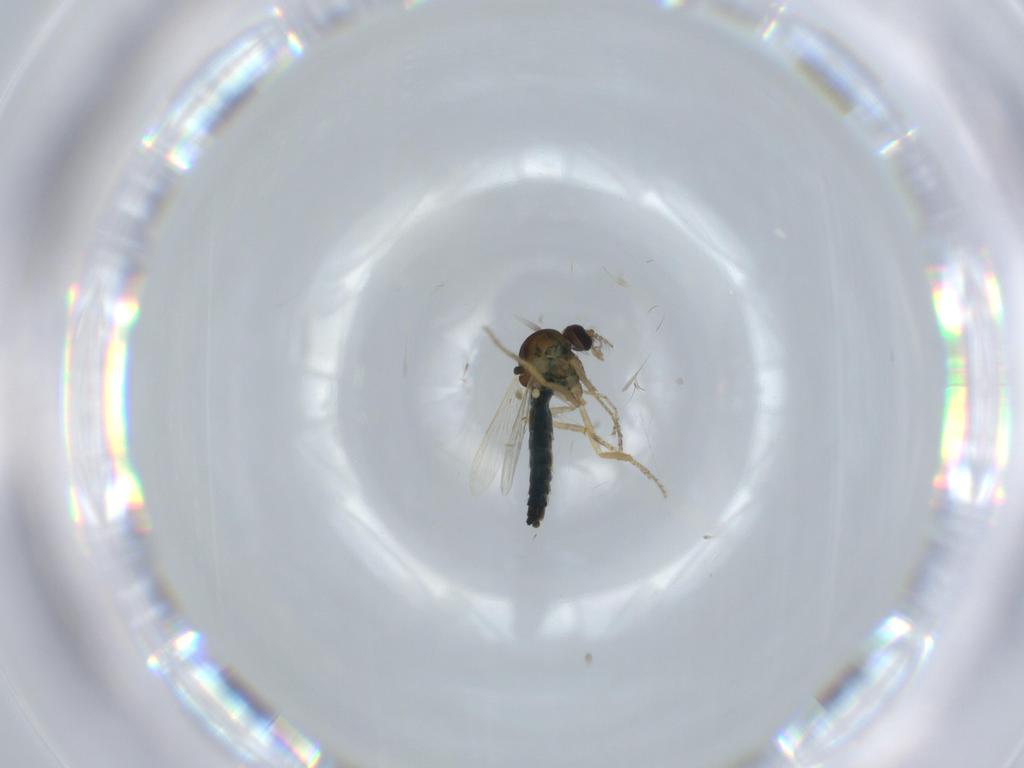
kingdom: Animalia
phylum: Arthropoda
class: Insecta
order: Diptera
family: Ceratopogonidae
